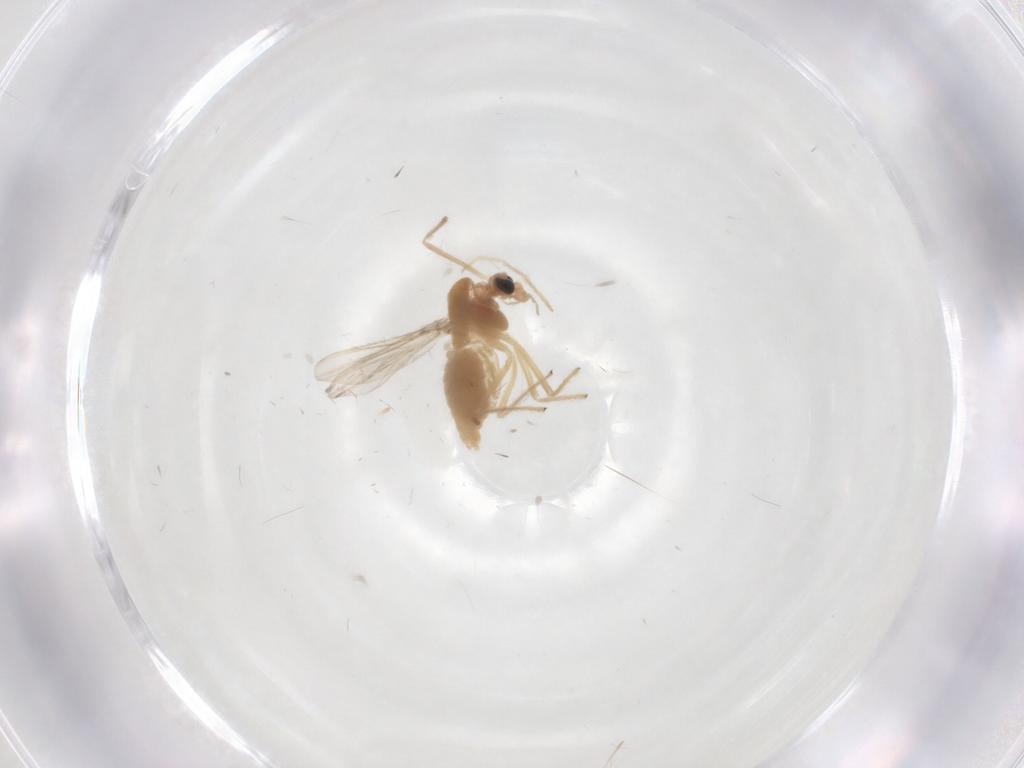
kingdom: Animalia
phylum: Arthropoda
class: Insecta
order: Diptera
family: Chironomidae
